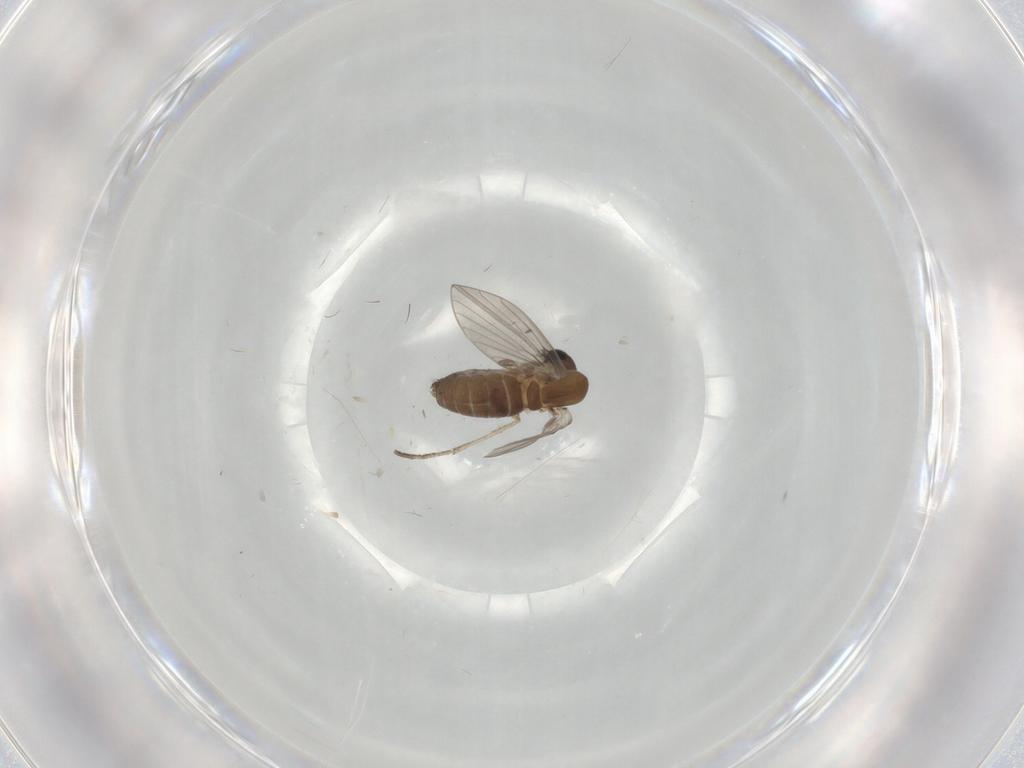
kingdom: Animalia
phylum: Arthropoda
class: Insecta
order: Diptera
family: Psychodidae
